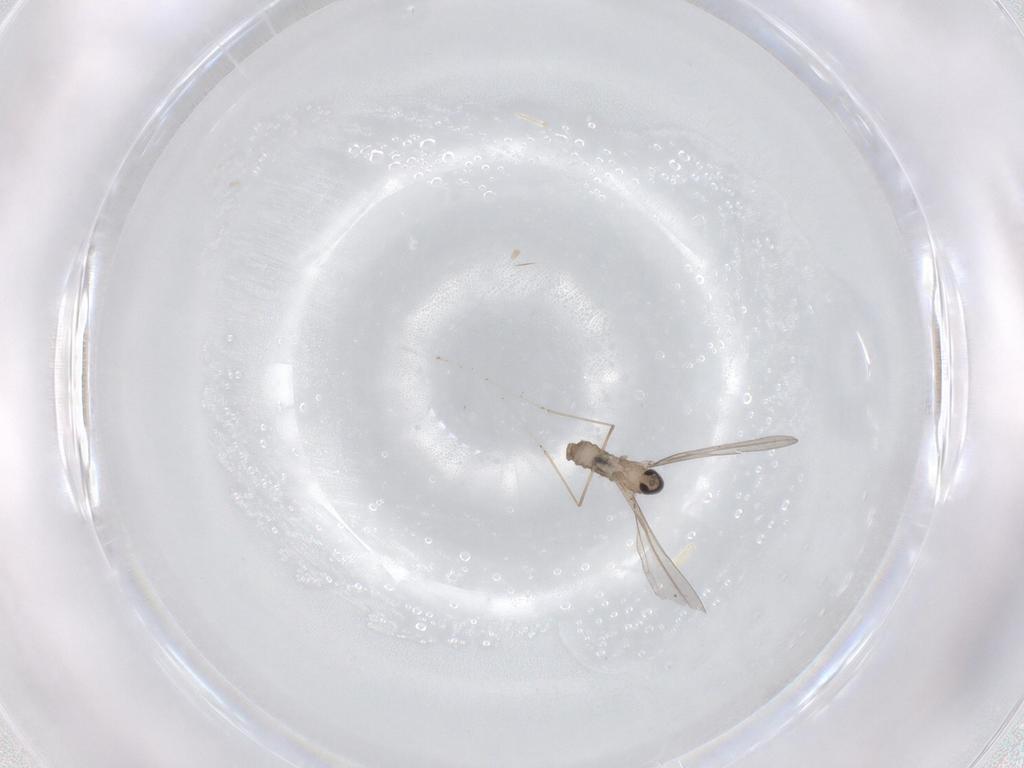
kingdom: Animalia
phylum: Arthropoda
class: Insecta
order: Diptera
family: Cecidomyiidae
